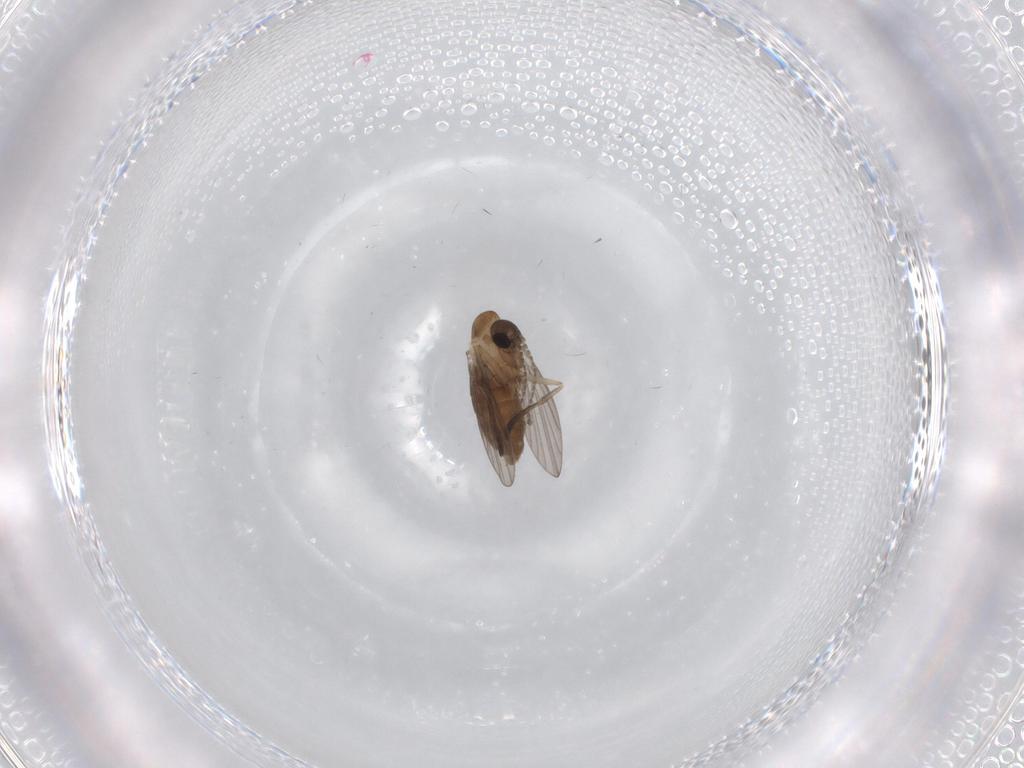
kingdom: Animalia
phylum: Arthropoda
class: Insecta
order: Diptera
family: Psychodidae
